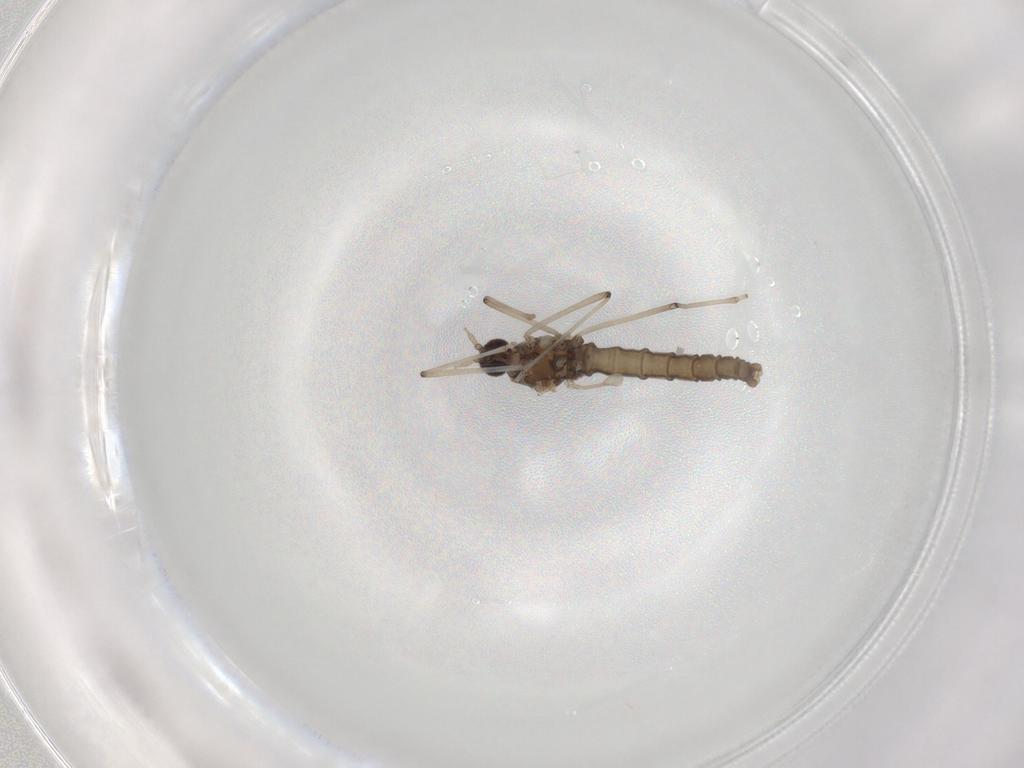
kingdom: Animalia
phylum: Arthropoda
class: Insecta
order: Diptera
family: Cecidomyiidae
